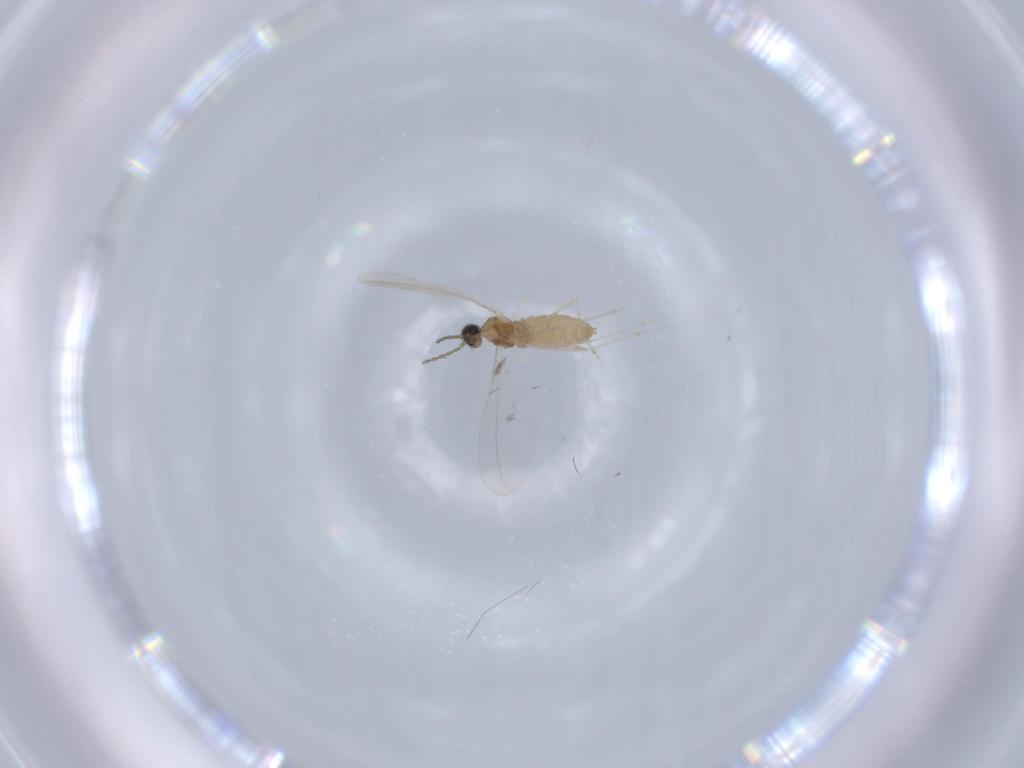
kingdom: Animalia
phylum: Arthropoda
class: Insecta
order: Diptera
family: Cecidomyiidae
